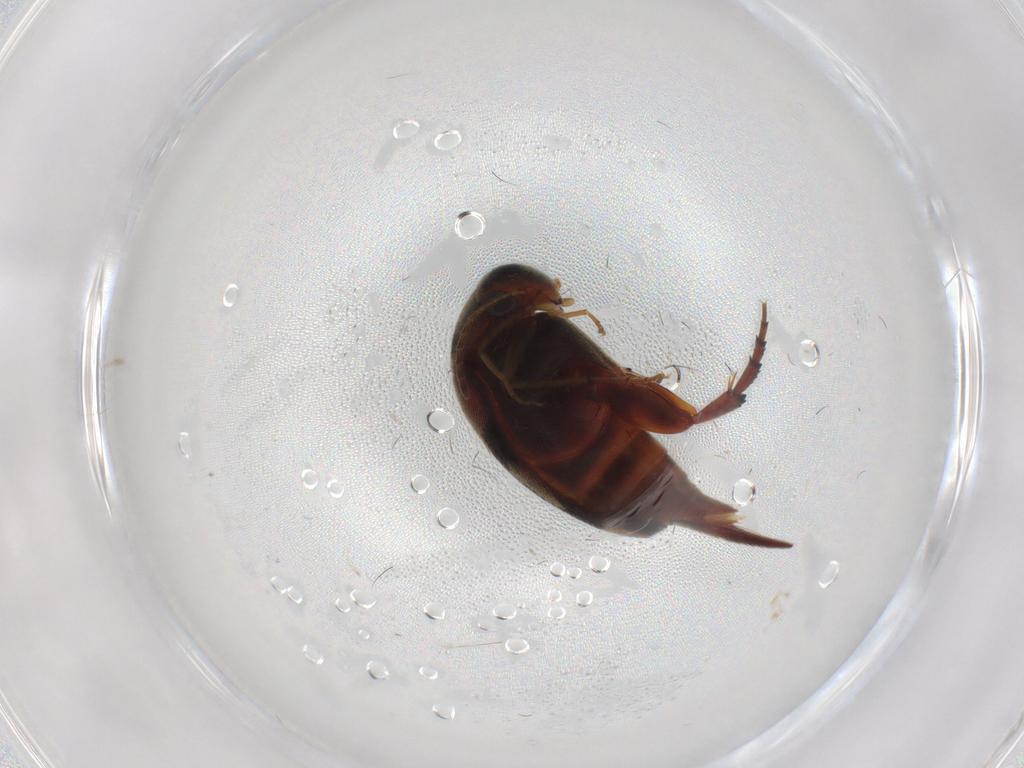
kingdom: Animalia
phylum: Arthropoda
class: Insecta
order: Coleoptera
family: Mordellidae
